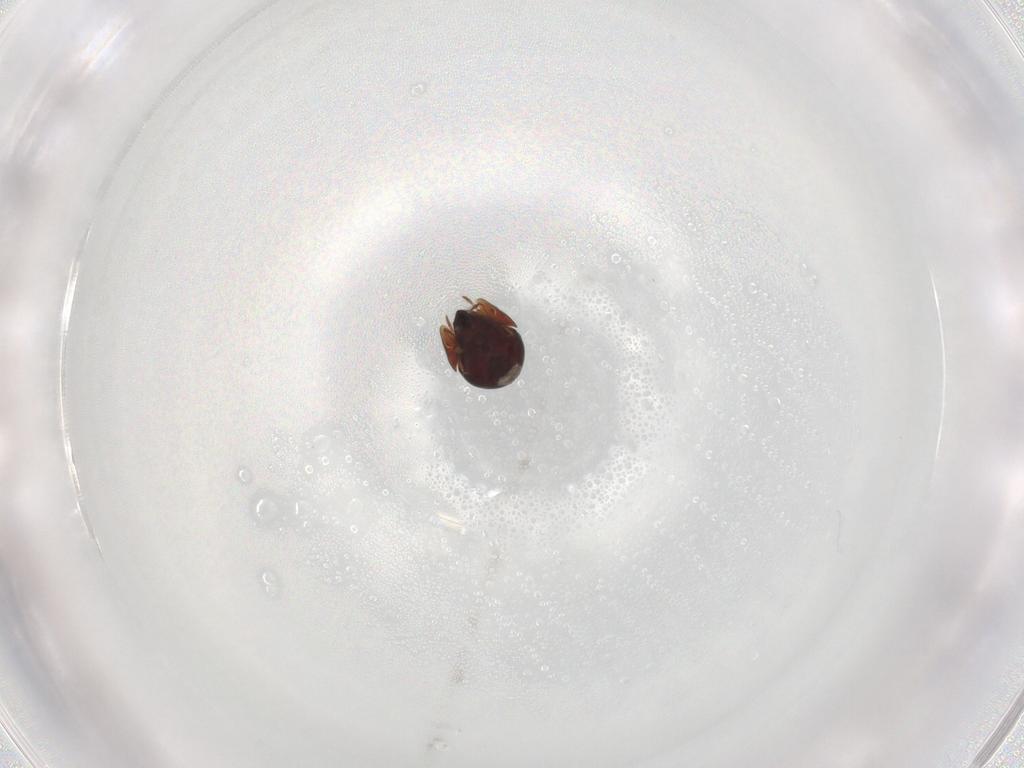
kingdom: Animalia
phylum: Arthropoda
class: Arachnida
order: Sarcoptiformes
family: Ceratozetidae
